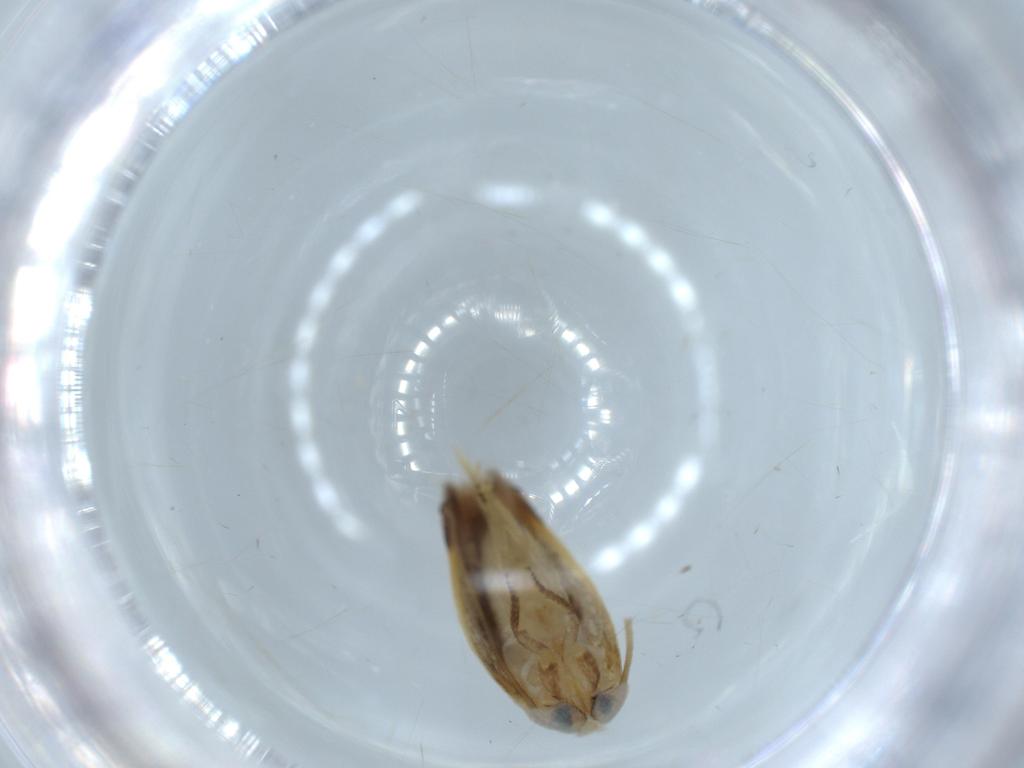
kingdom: Animalia
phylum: Arthropoda
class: Insecta
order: Lepidoptera
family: Opostegidae
